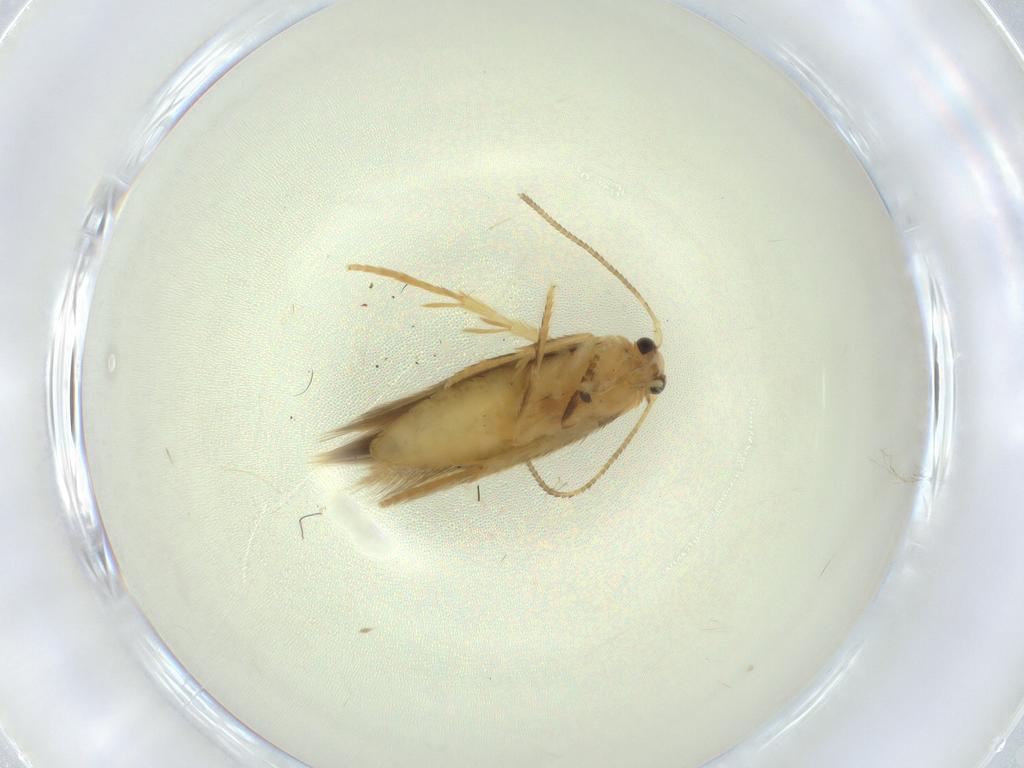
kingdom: Animalia
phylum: Arthropoda
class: Insecta
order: Lepidoptera
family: Nepticulidae
